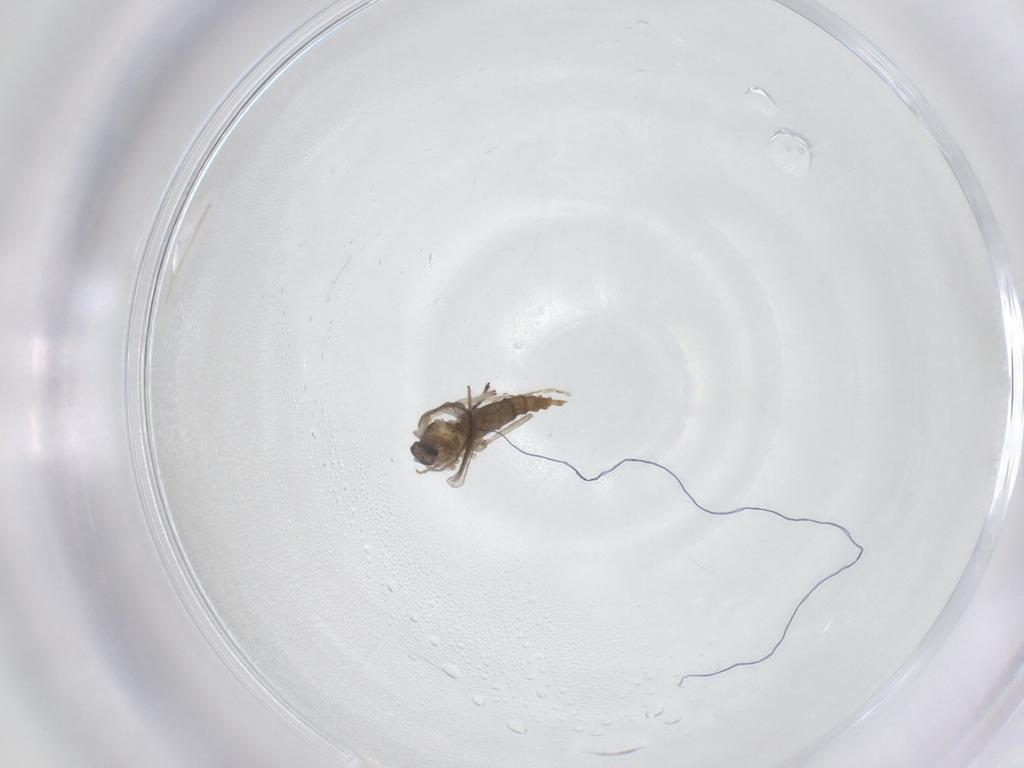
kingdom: Animalia
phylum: Arthropoda
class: Insecta
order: Diptera
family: Cecidomyiidae
